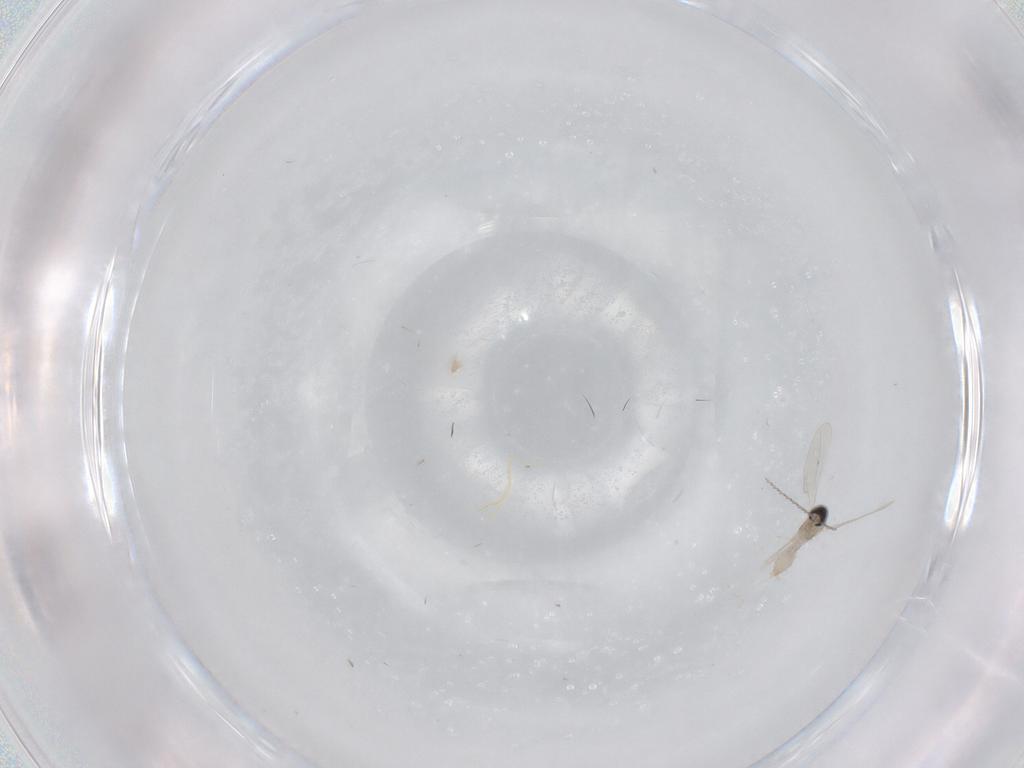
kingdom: Animalia
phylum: Arthropoda
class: Insecta
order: Diptera
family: Cecidomyiidae
